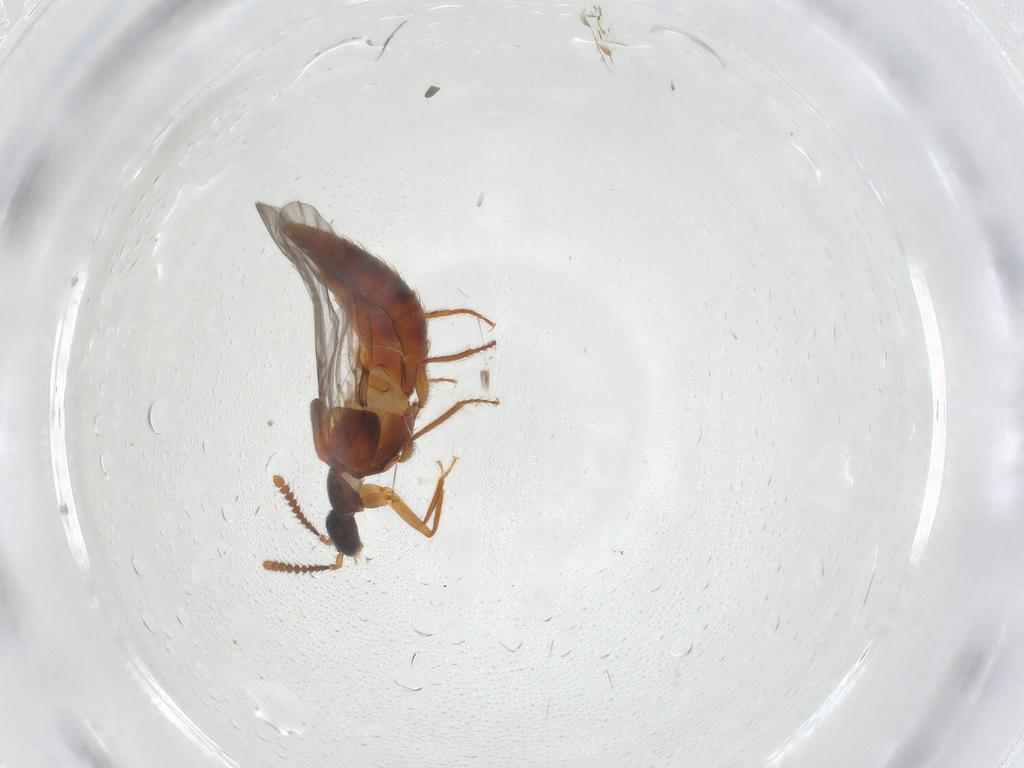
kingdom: Animalia
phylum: Arthropoda
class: Insecta
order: Coleoptera
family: Staphylinidae
